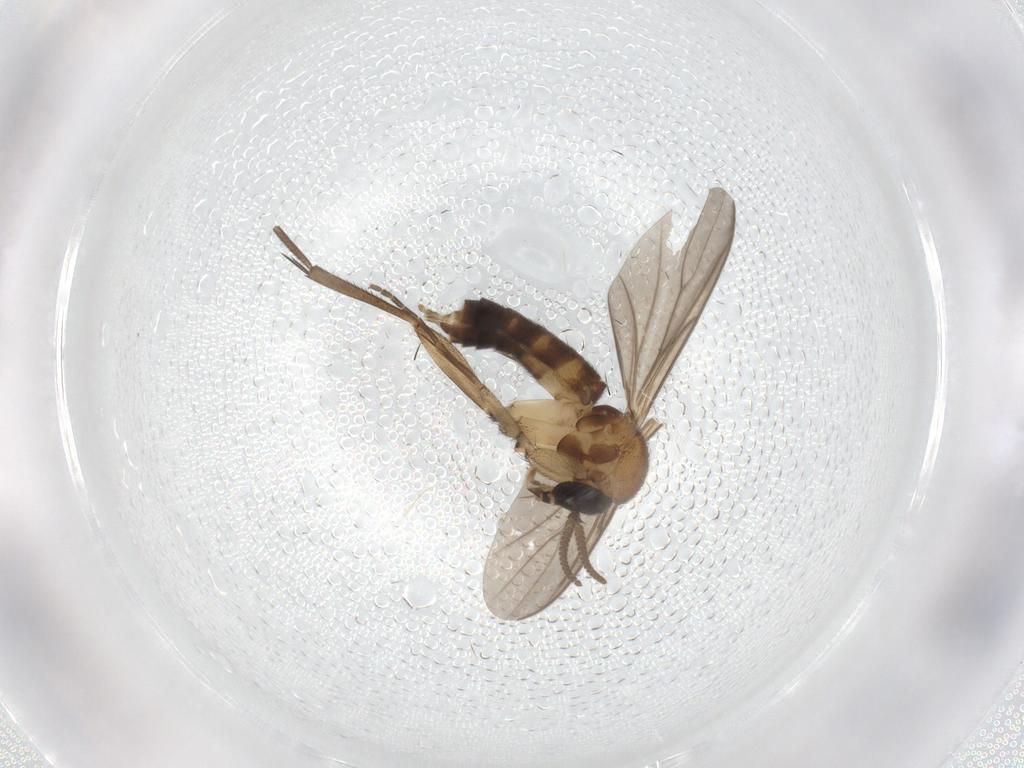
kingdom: Animalia
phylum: Arthropoda
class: Insecta
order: Diptera
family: Mycetophilidae
